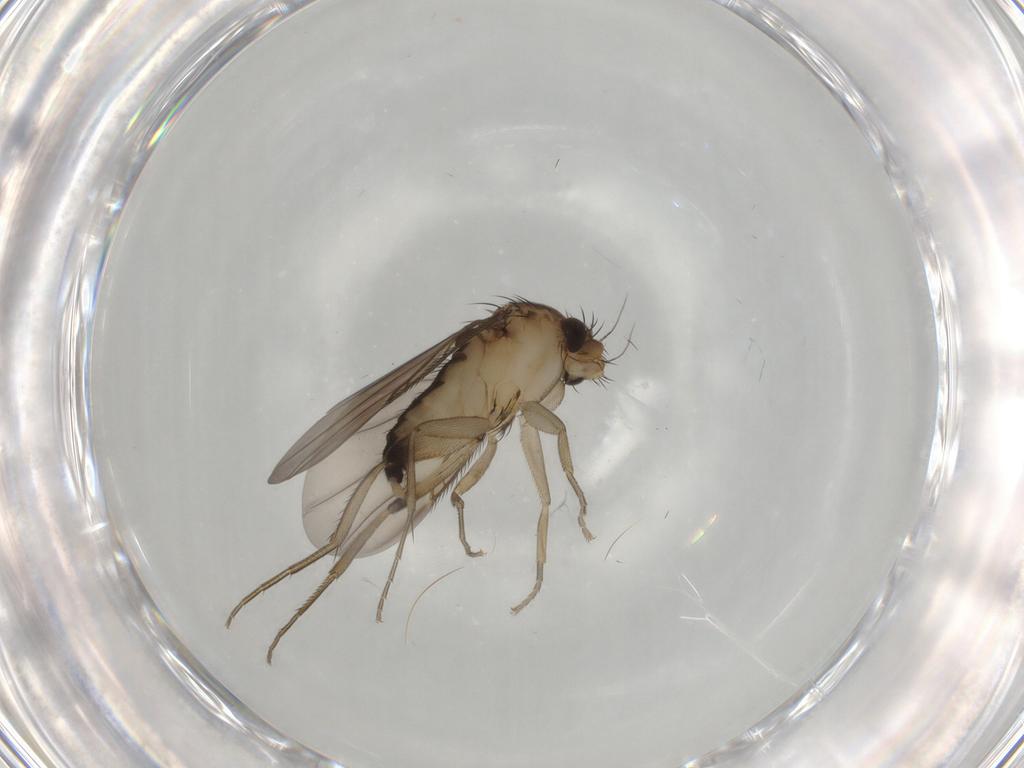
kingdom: Animalia
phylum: Arthropoda
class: Insecta
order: Diptera
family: Phoridae
